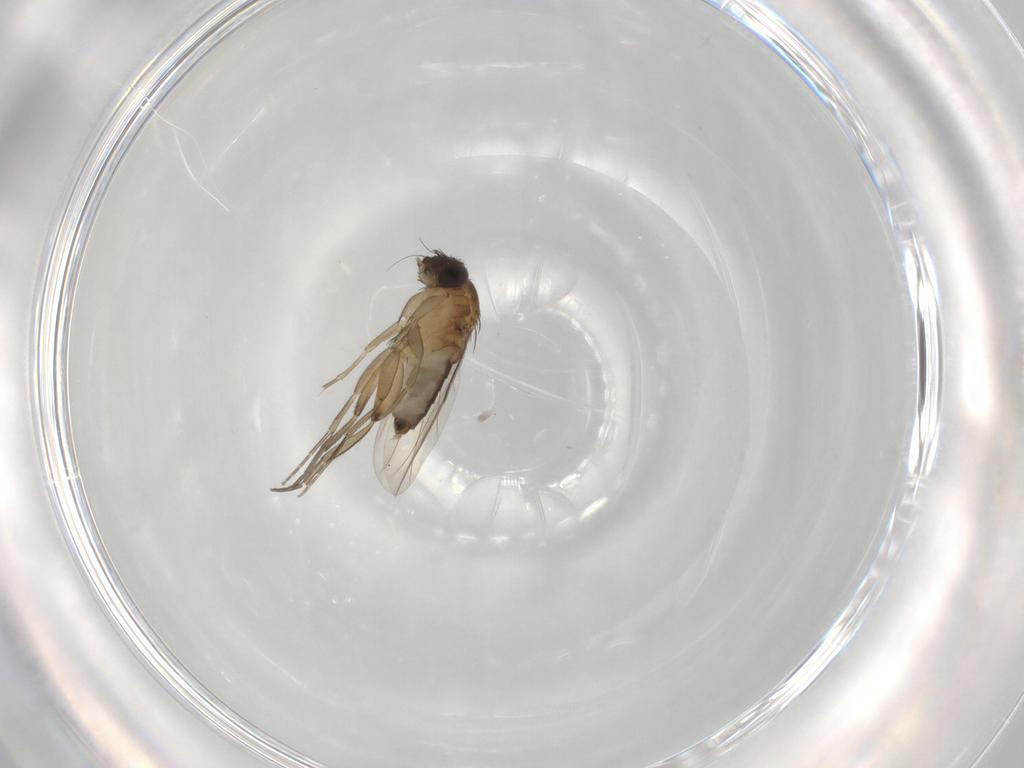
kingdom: Animalia
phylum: Arthropoda
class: Insecta
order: Diptera
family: Phoridae
